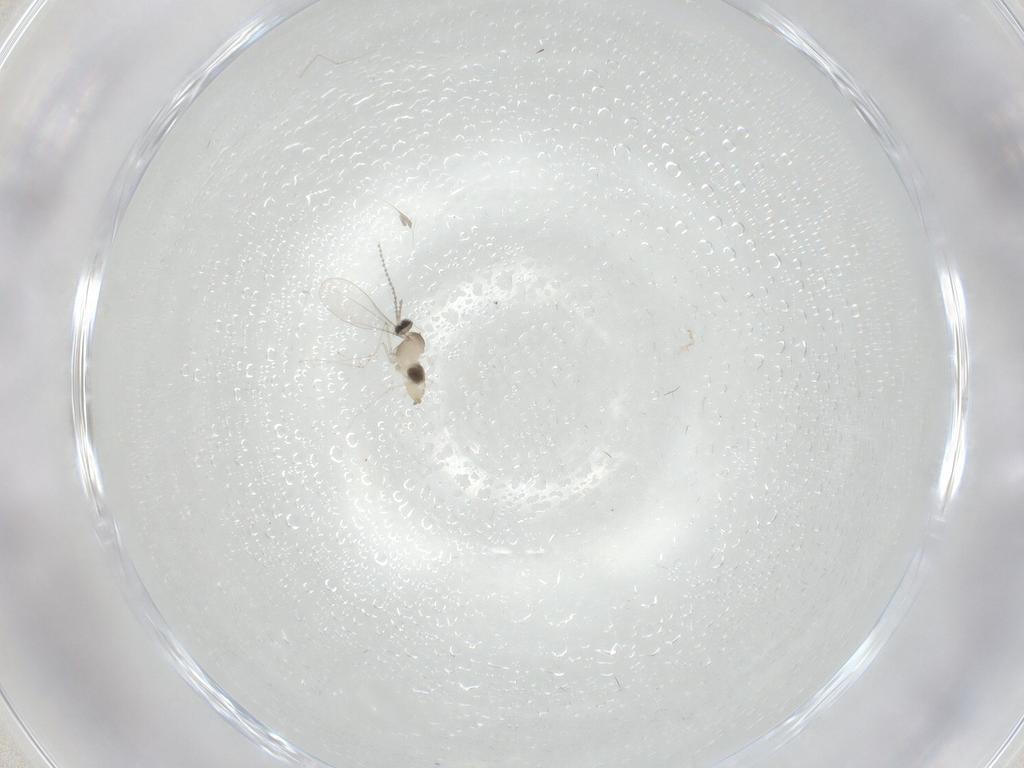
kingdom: Animalia
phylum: Arthropoda
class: Insecta
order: Diptera
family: Cecidomyiidae
